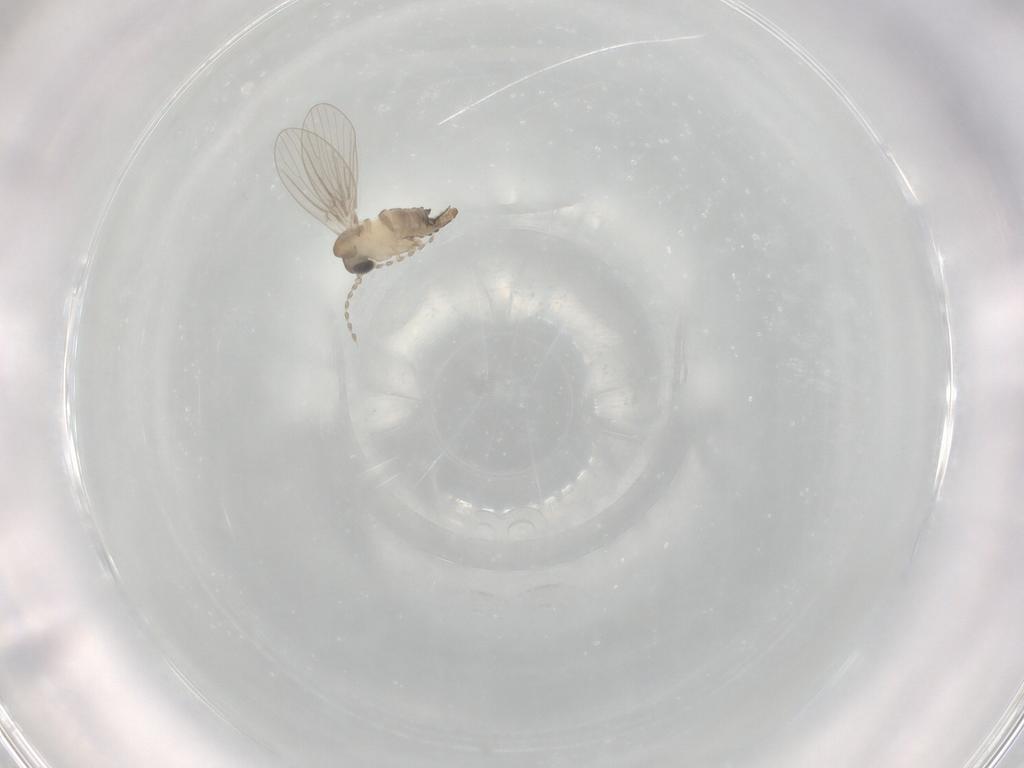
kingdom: Animalia
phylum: Arthropoda
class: Insecta
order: Diptera
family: Psychodidae
